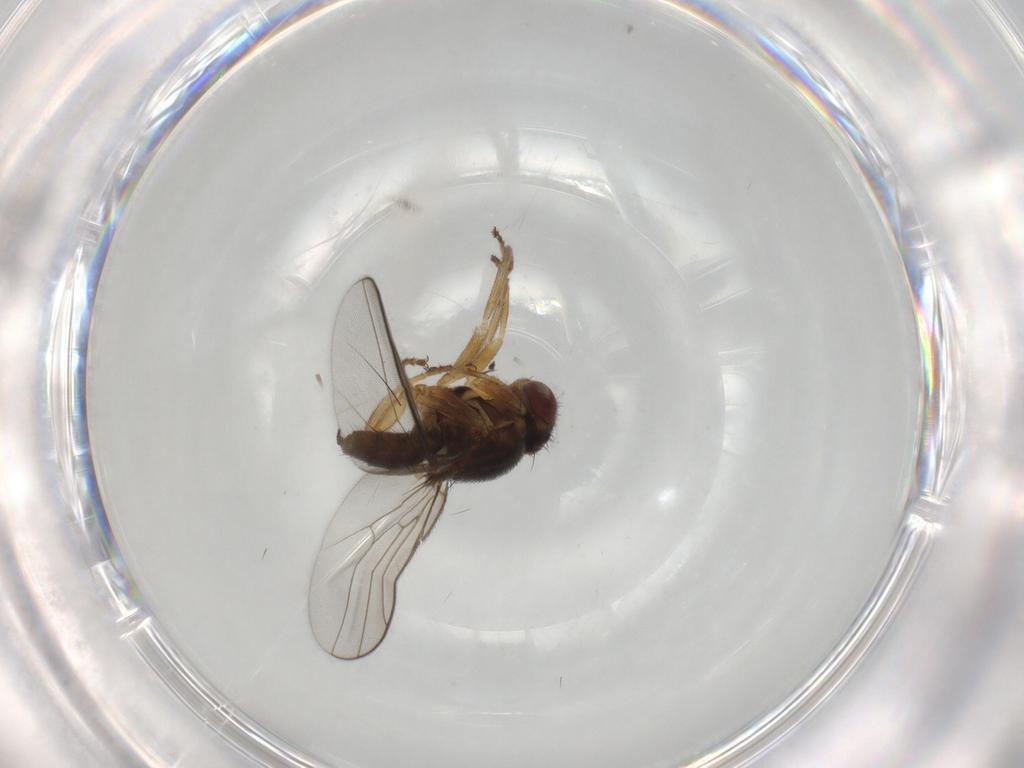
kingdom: Animalia
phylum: Arthropoda
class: Insecta
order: Diptera
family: Chloropidae
